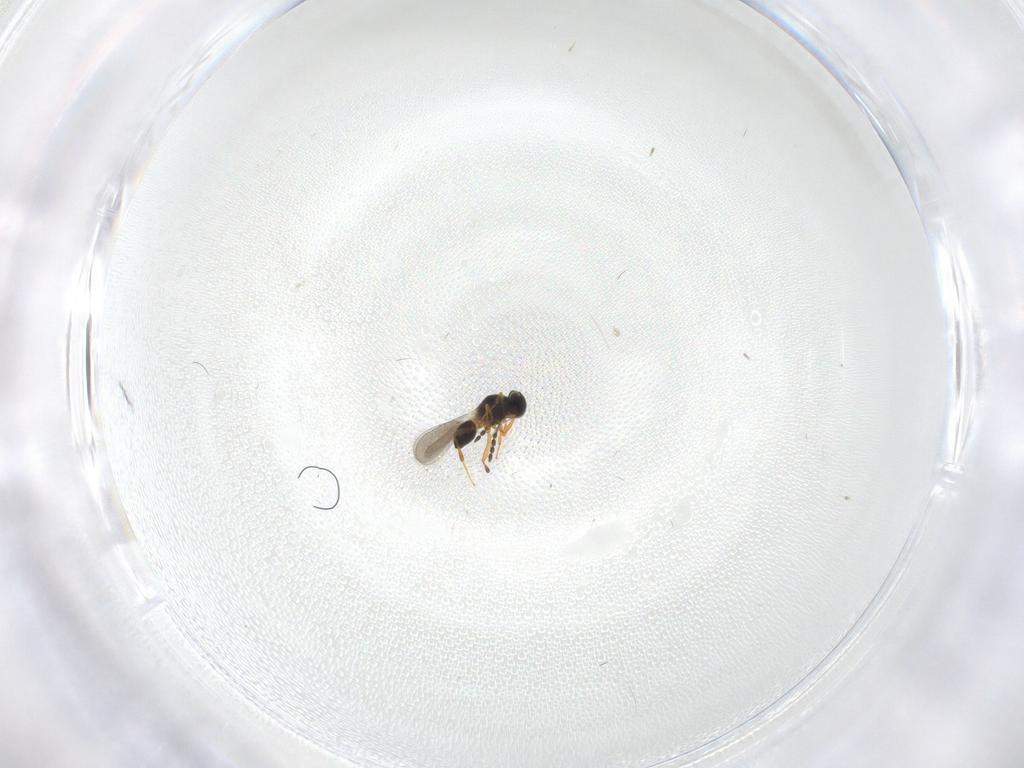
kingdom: Animalia
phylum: Arthropoda
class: Insecta
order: Hymenoptera
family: Platygastridae
